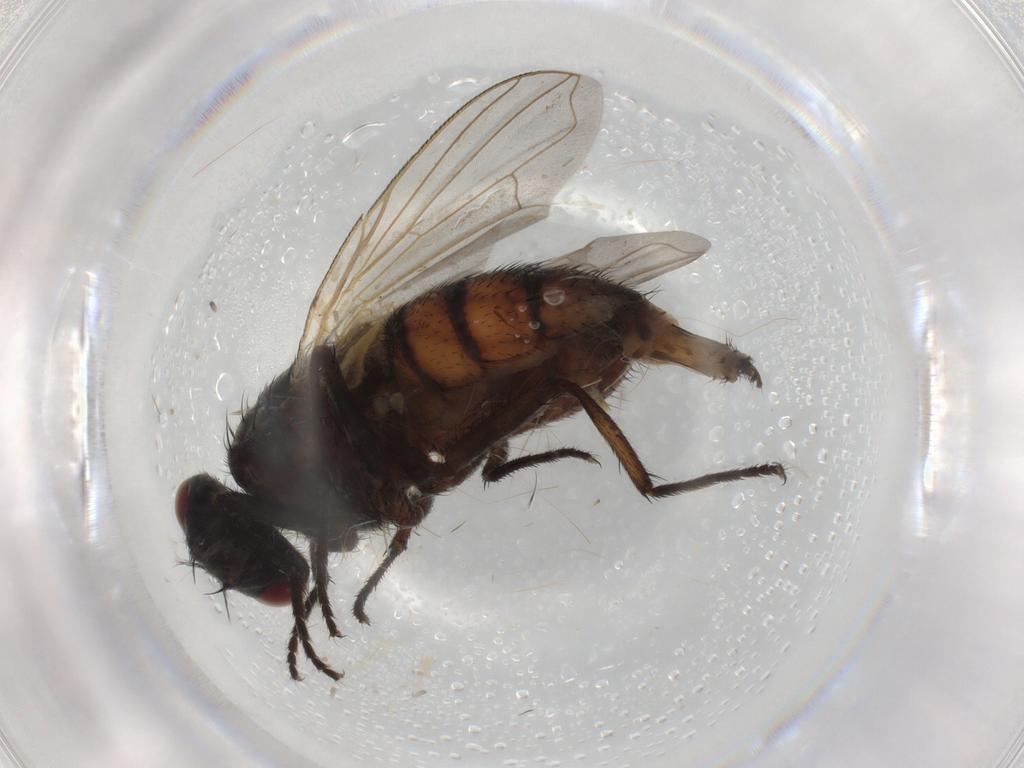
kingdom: Animalia
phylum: Arthropoda
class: Insecta
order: Diptera
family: Muscidae
